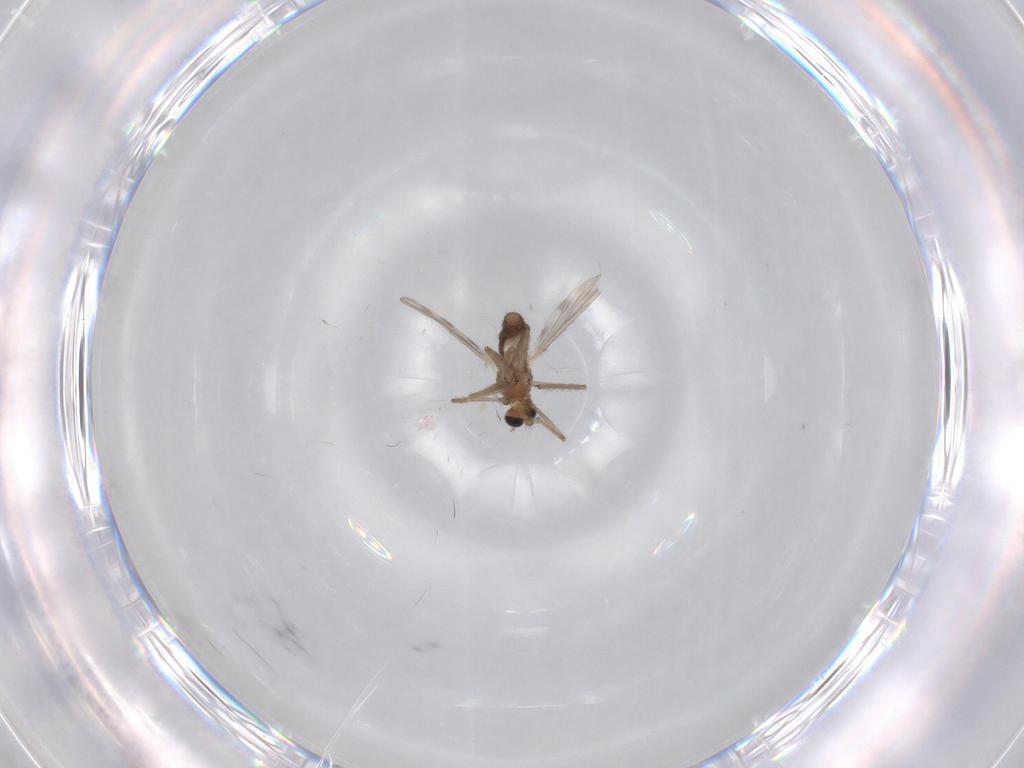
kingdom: Animalia
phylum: Arthropoda
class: Insecta
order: Diptera
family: Chironomidae
